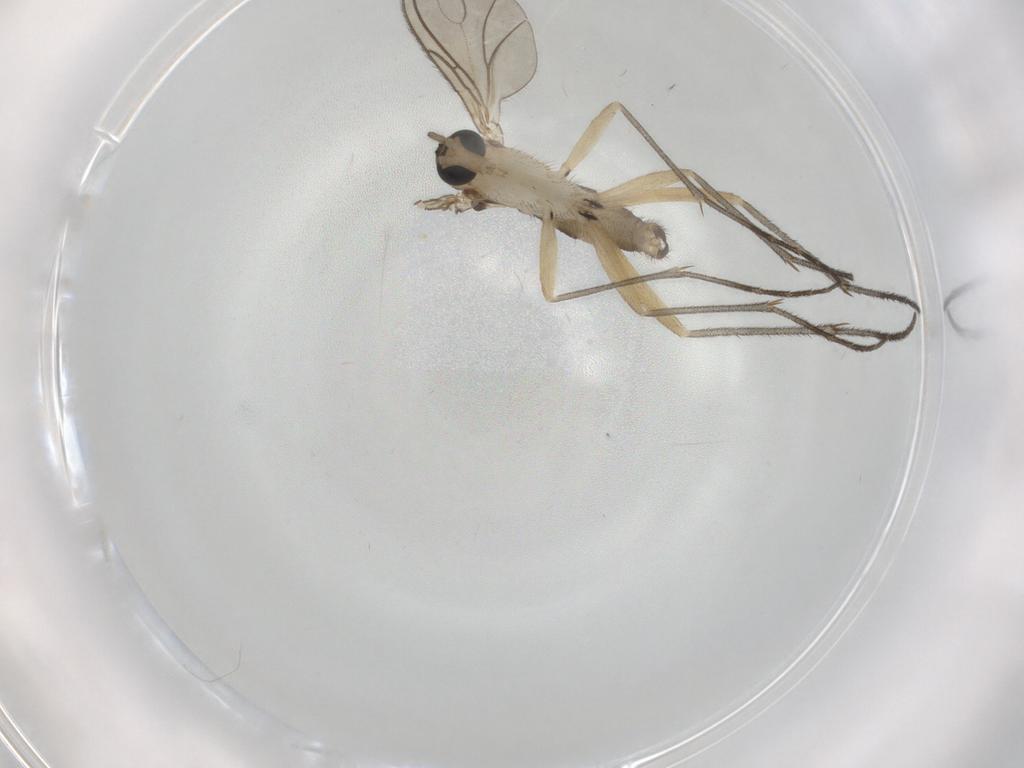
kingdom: Animalia
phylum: Arthropoda
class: Insecta
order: Diptera
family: Sciaridae
